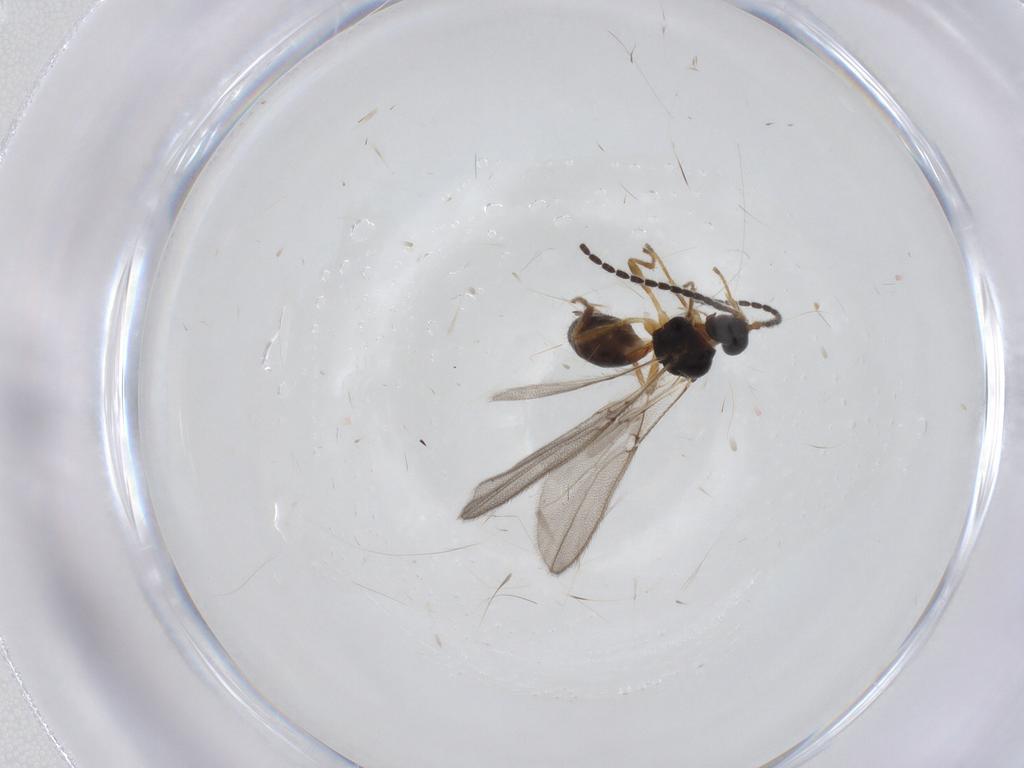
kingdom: Animalia
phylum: Arthropoda
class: Insecta
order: Hymenoptera
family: Braconidae
